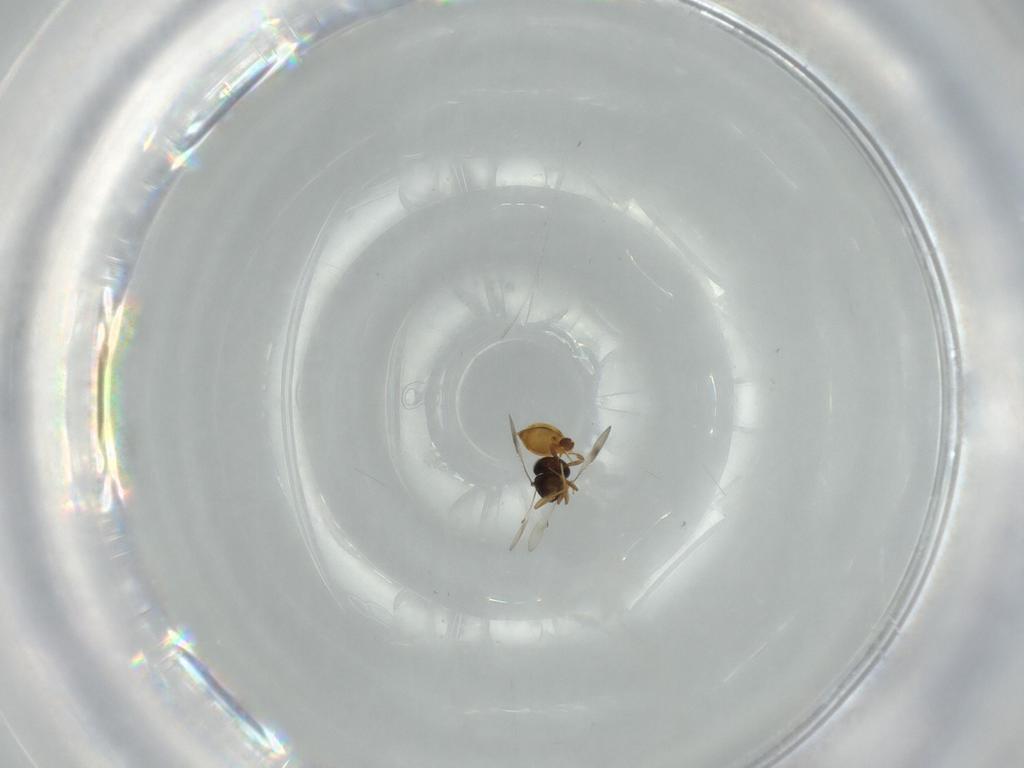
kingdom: Animalia
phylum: Arthropoda
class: Insecta
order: Hymenoptera
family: Scelionidae
